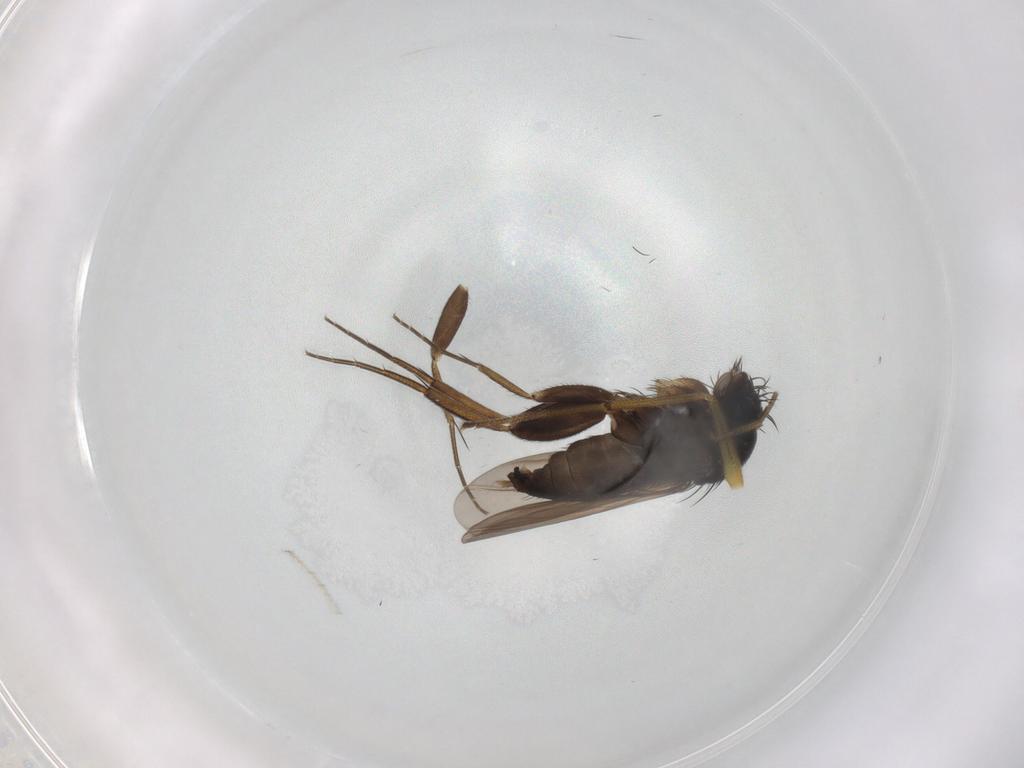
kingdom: Animalia
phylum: Arthropoda
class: Insecta
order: Diptera
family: Phoridae
